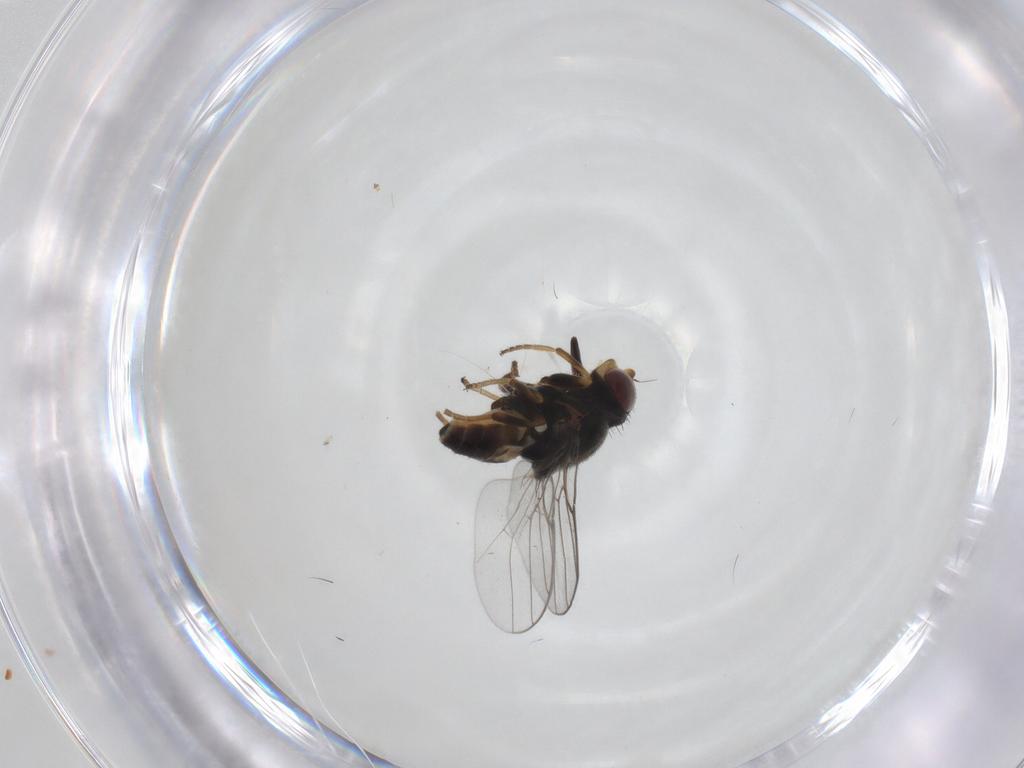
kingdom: Animalia
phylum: Arthropoda
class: Insecta
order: Diptera
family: Chloropidae
